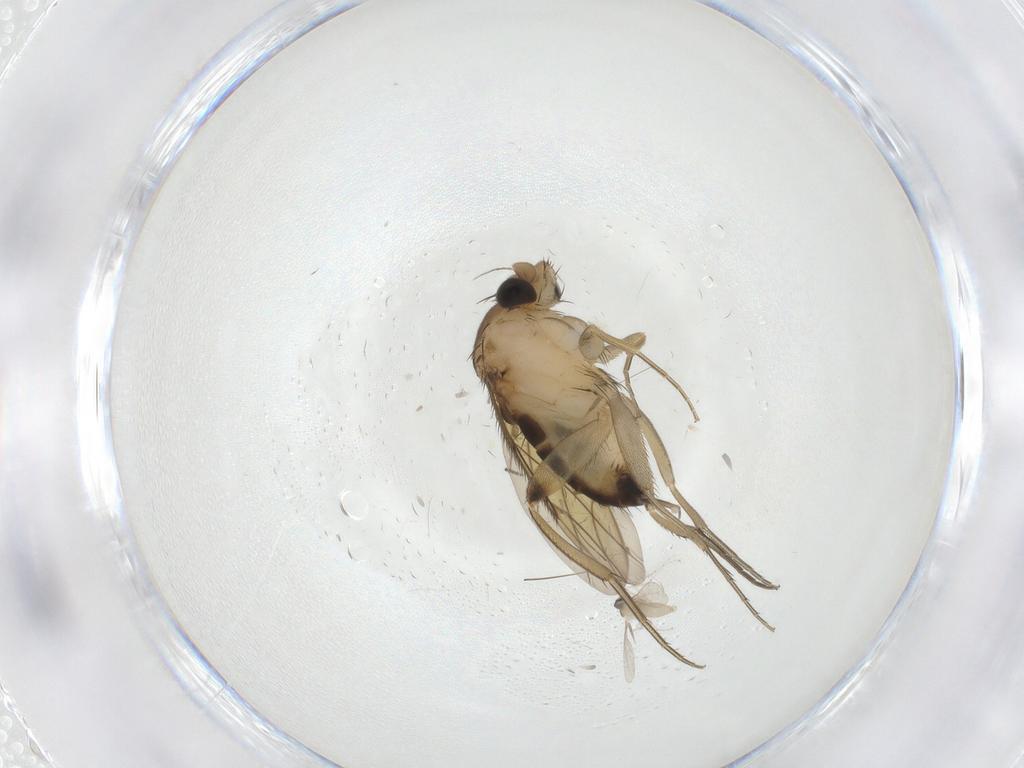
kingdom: Animalia
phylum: Arthropoda
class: Insecta
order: Diptera
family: Phoridae
